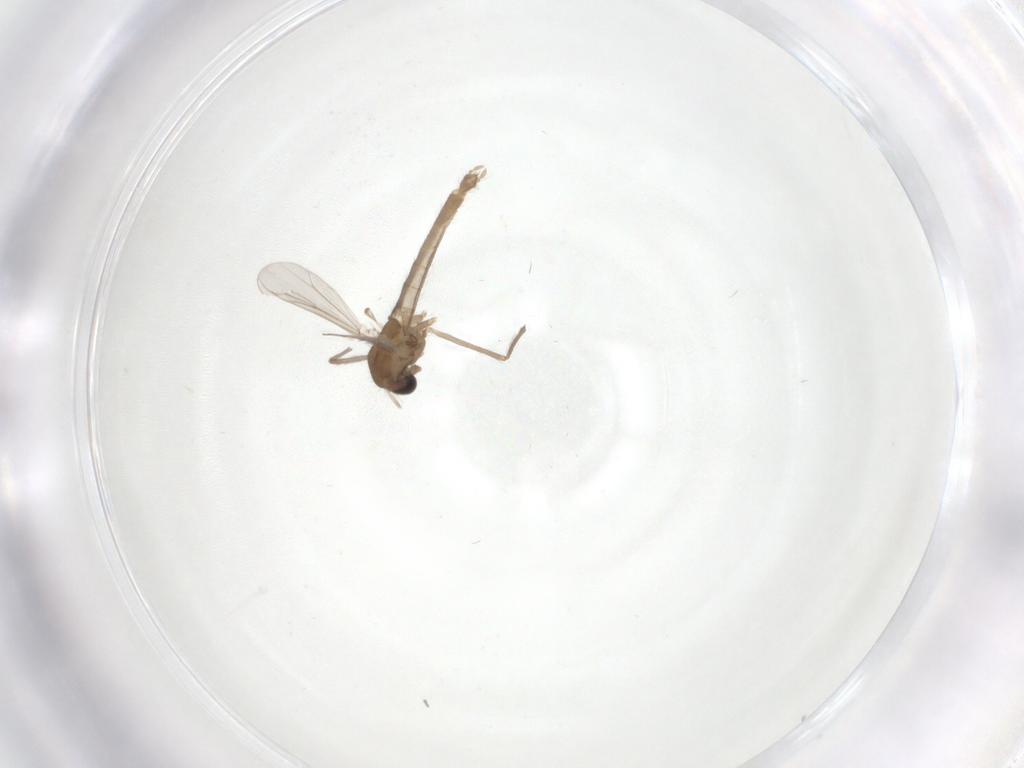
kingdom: Animalia
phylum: Arthropoda
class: Insecta
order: Diptera
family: Chironomidae
